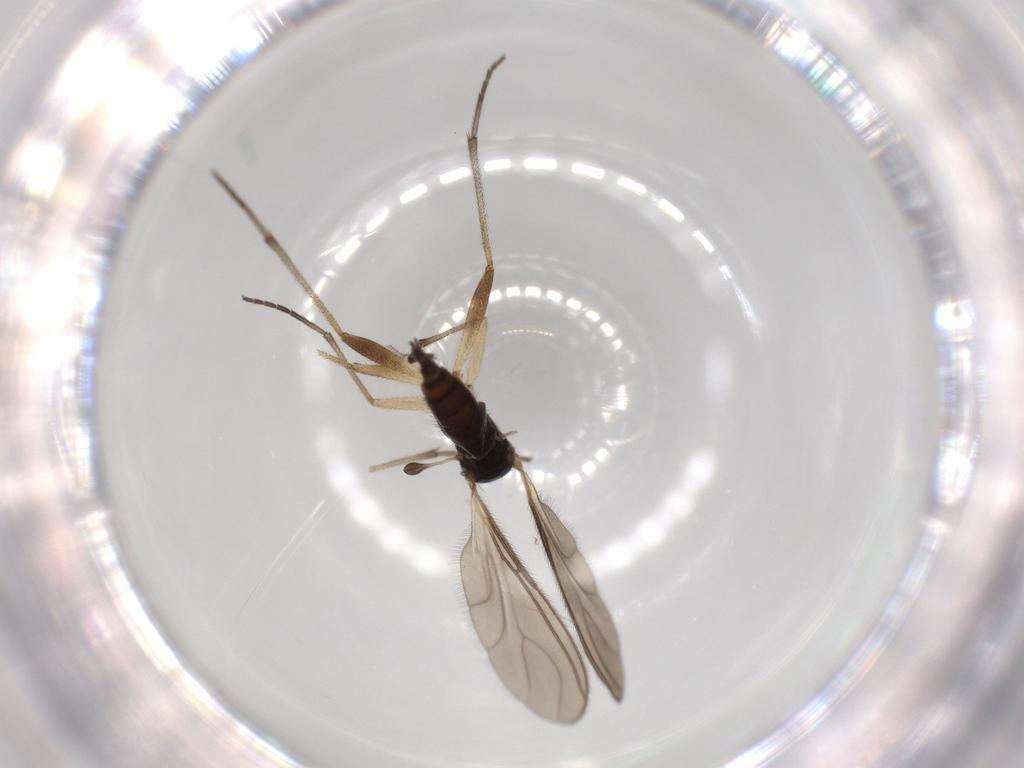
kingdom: Animalia
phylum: Arthropoda
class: Insecta
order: Diptera
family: Sciaridae
